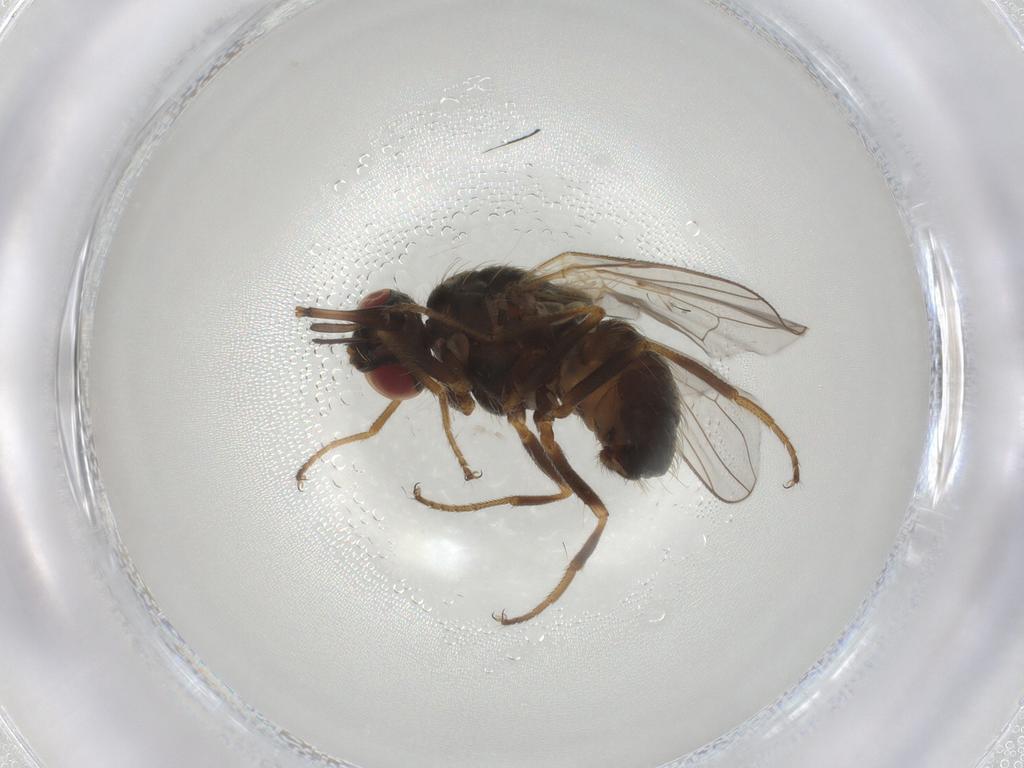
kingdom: Animalia
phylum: Arthropoda
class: Insecta
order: Diptera
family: Muscidae
